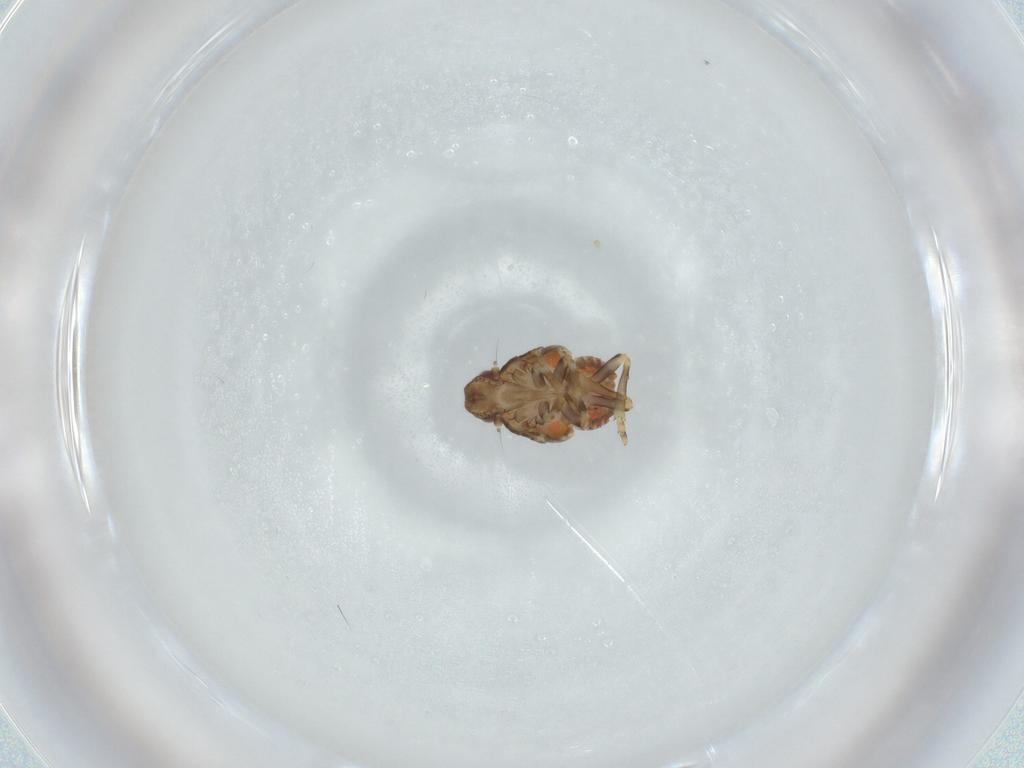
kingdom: Animalia
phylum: Arthropoda
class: Insecta
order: Hemiptera
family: Flatidae
